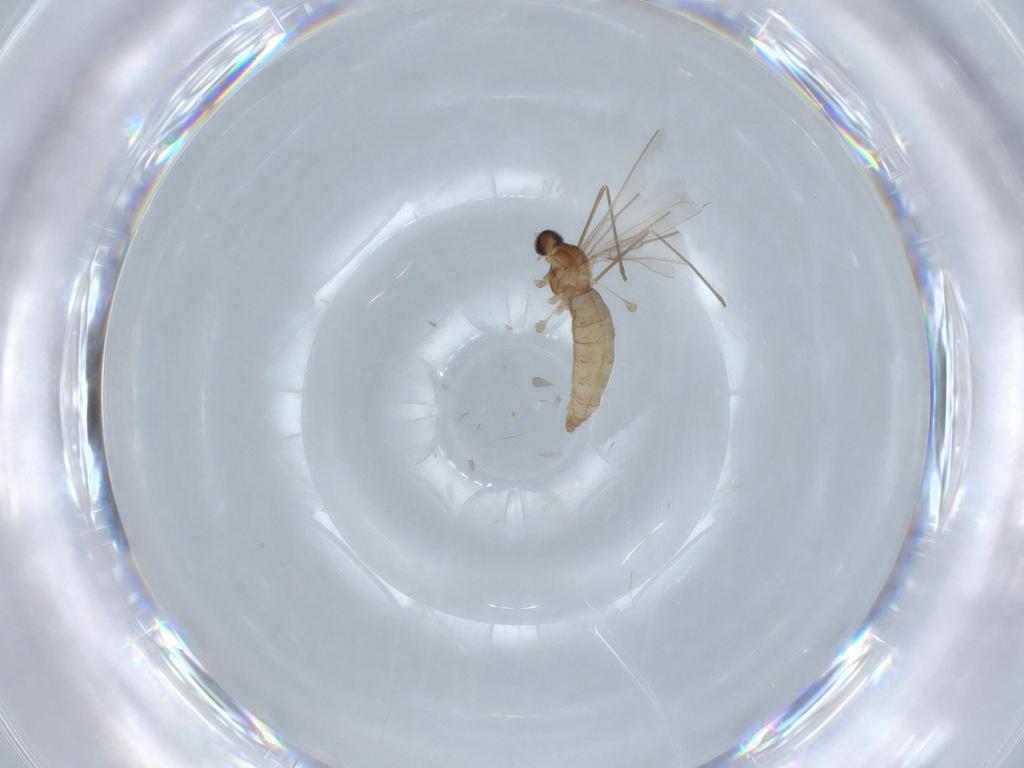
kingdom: Animalia
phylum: Arthropoda
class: Insecta
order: Diptera
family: Cecidomyiidae
